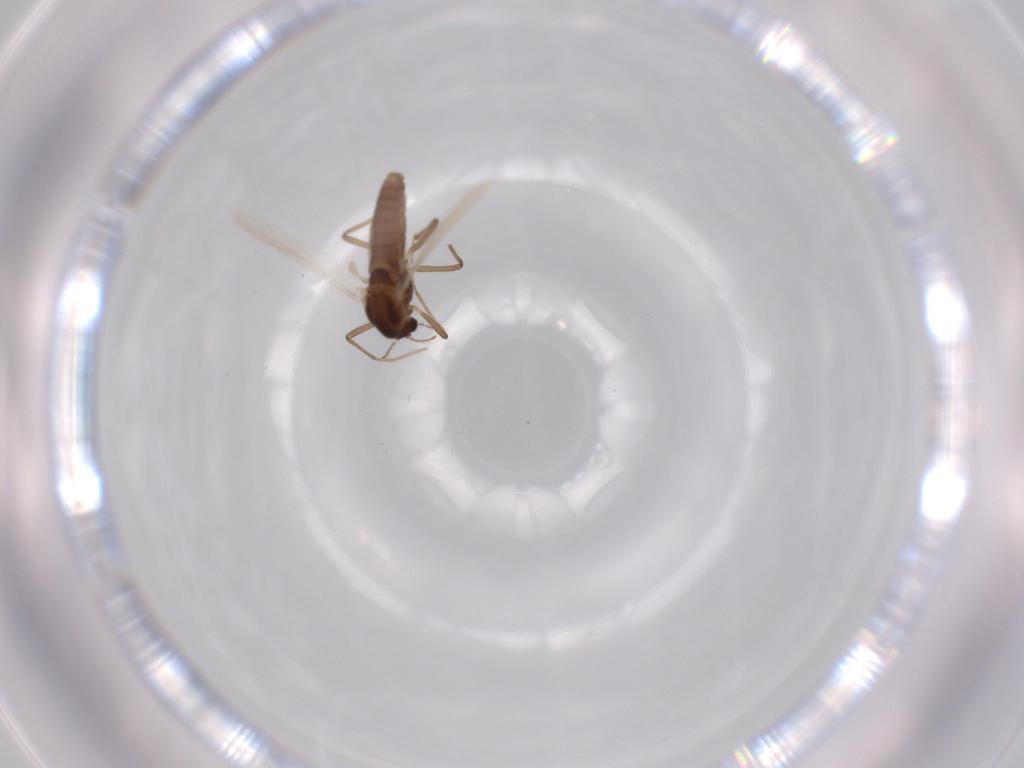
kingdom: Animalia
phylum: Arthropoda
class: Insecta
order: Diptera
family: Chironomidae
